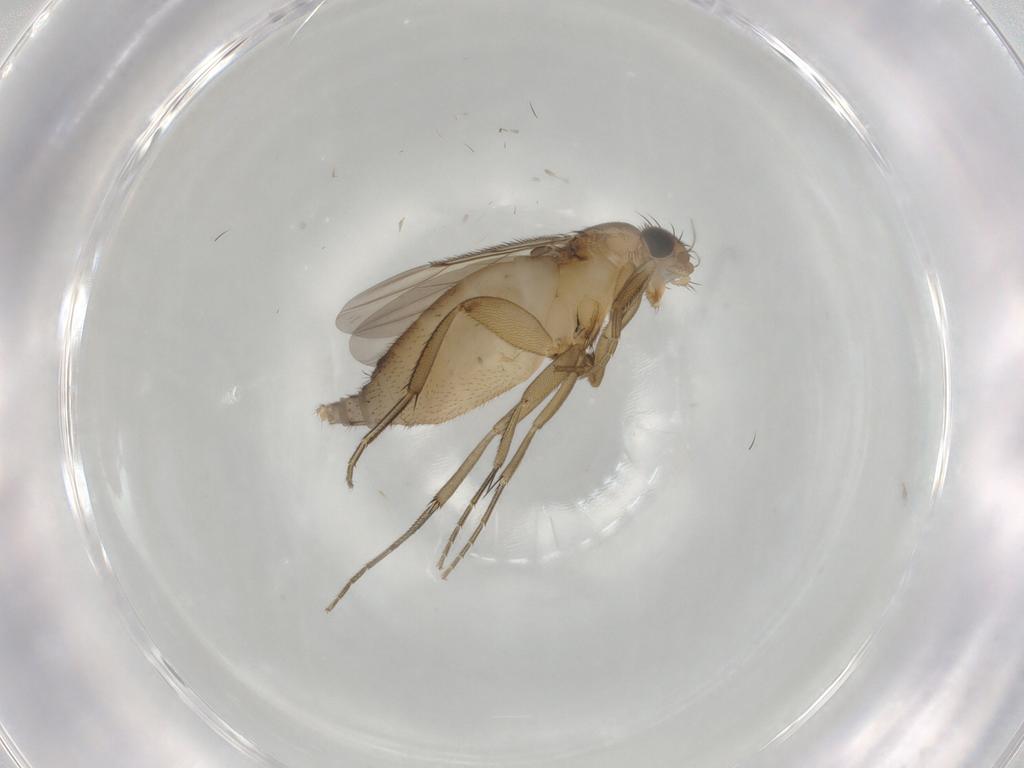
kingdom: Animalia
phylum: Arthropoda
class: Insecta
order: Diptera
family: Phoridae
